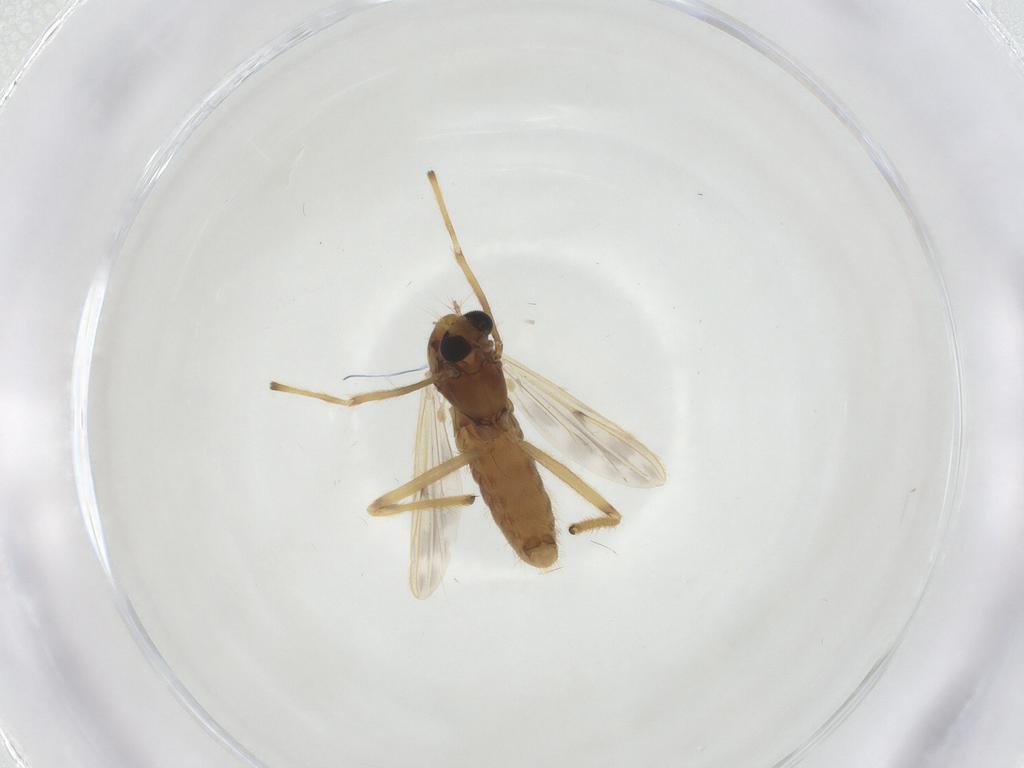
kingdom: Animalia
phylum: Arthropoda
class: Insecta
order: Diptera
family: Chironomidae
